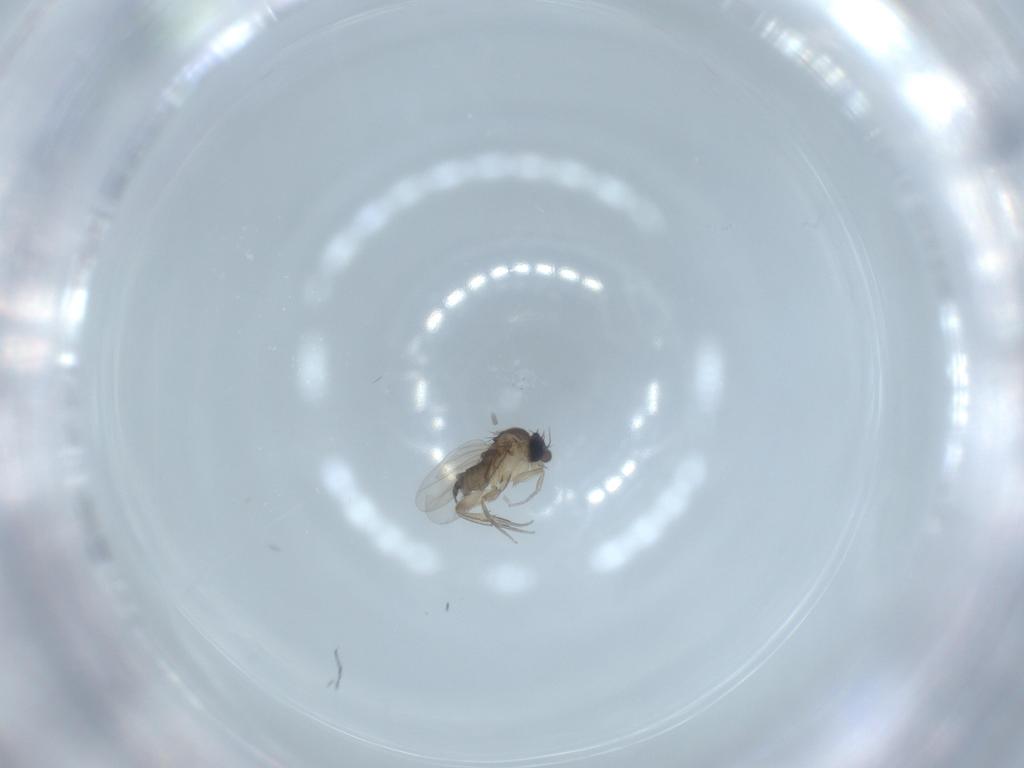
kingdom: Animalia
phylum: Arthropoda
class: Insecta
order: Diptera
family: Phoridae
